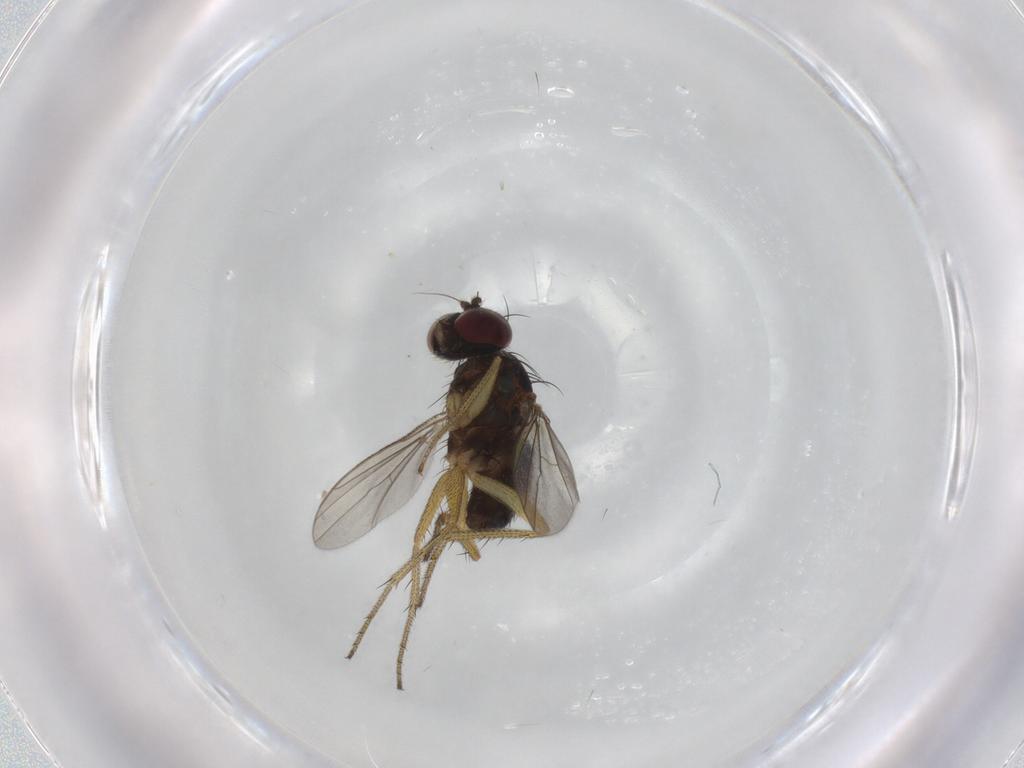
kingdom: Animalia
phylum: Arthropoda
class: Insecta
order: Diptera
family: Dolichopodidae
